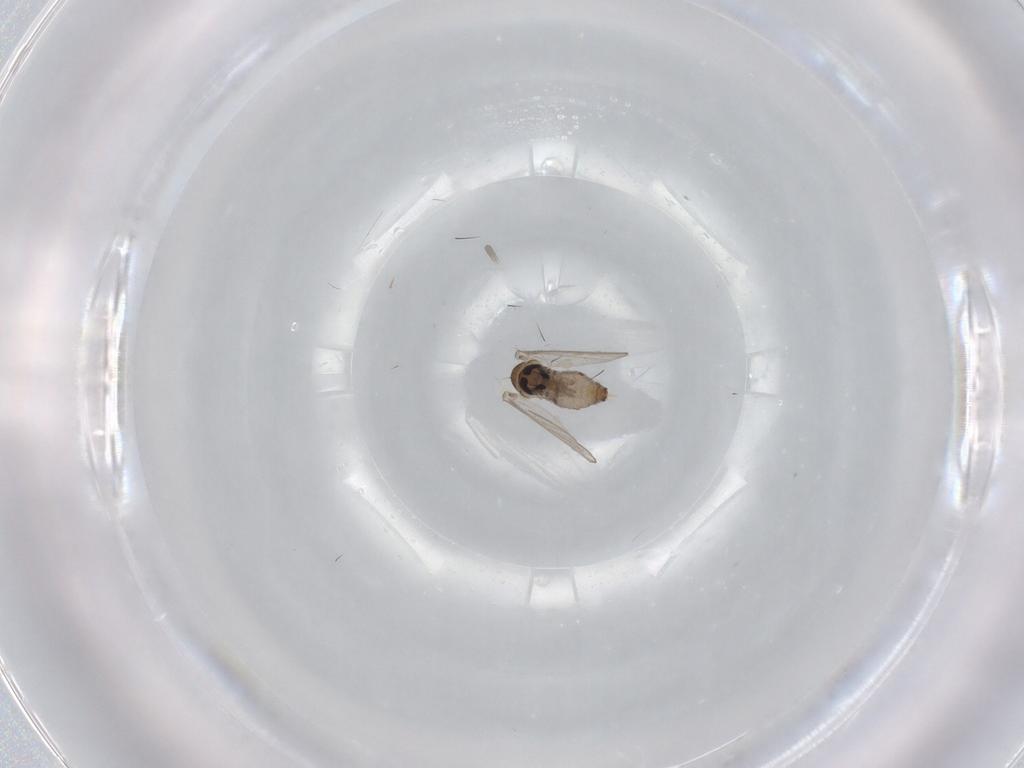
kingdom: Animalia
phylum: Arthropoda
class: Insecta
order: Diptera
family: Psychodidae
